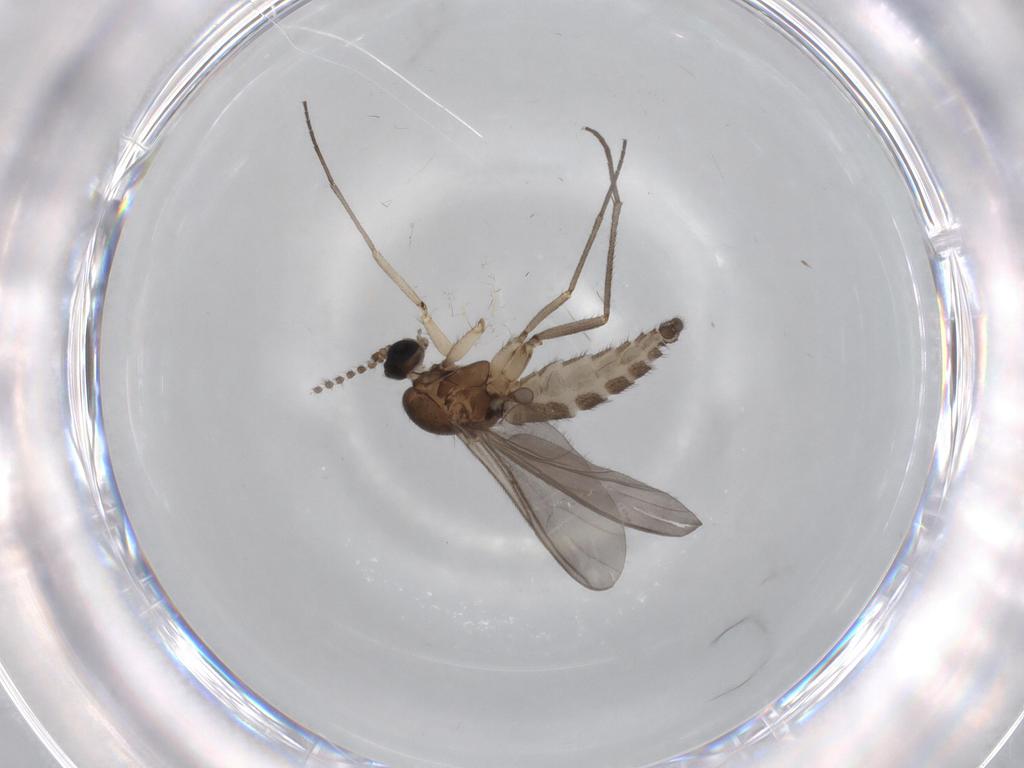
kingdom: Animalia
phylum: Arthropoda
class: Insecta
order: Diptera
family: Sciaridae
